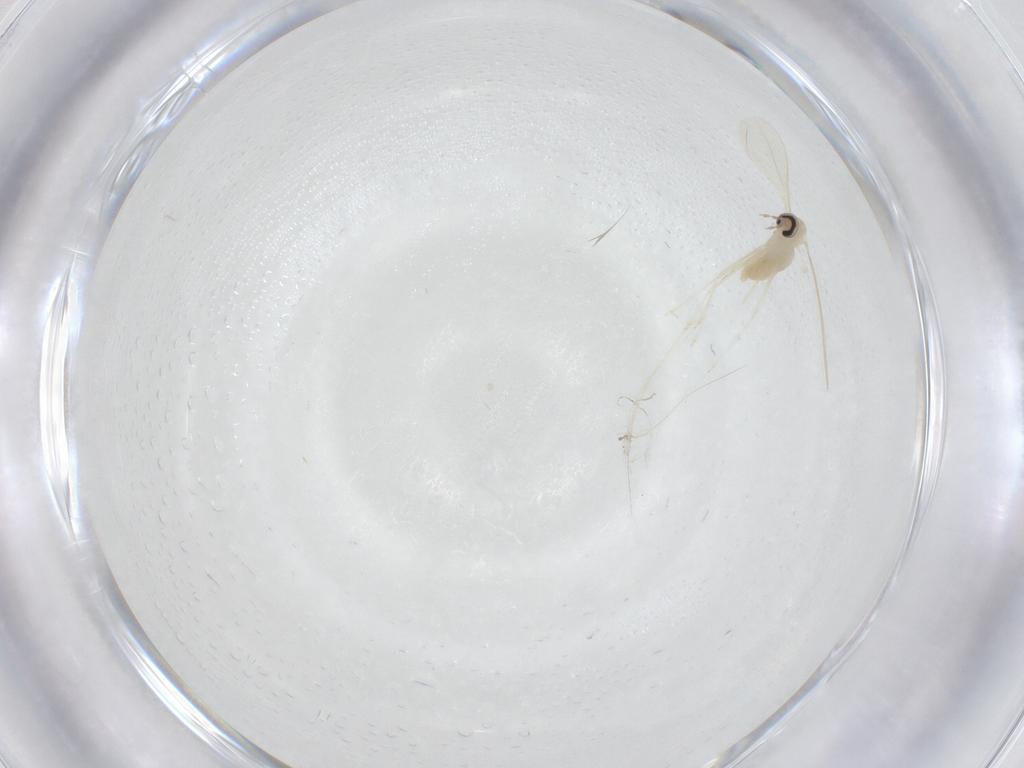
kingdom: Animalia
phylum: Arthropoda
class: Insecta
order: Diptera
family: Cecidomyiidae
